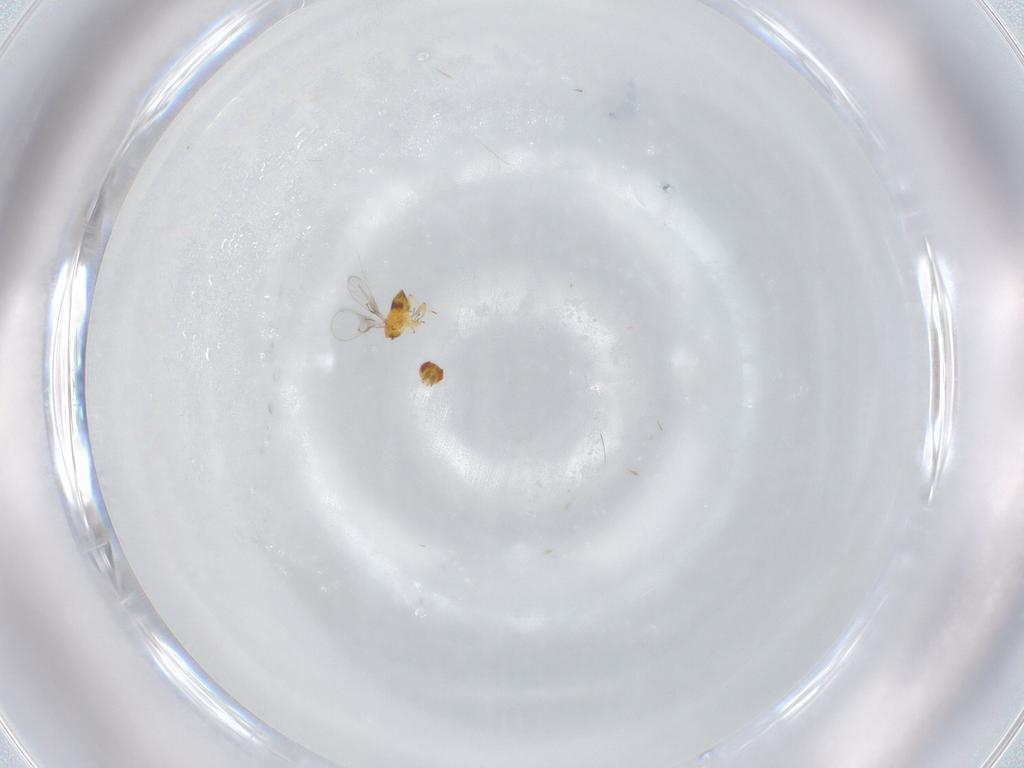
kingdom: Animalia
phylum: Arthropoda
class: Insecta
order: Hymenoptera
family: Trichogrammatidae
